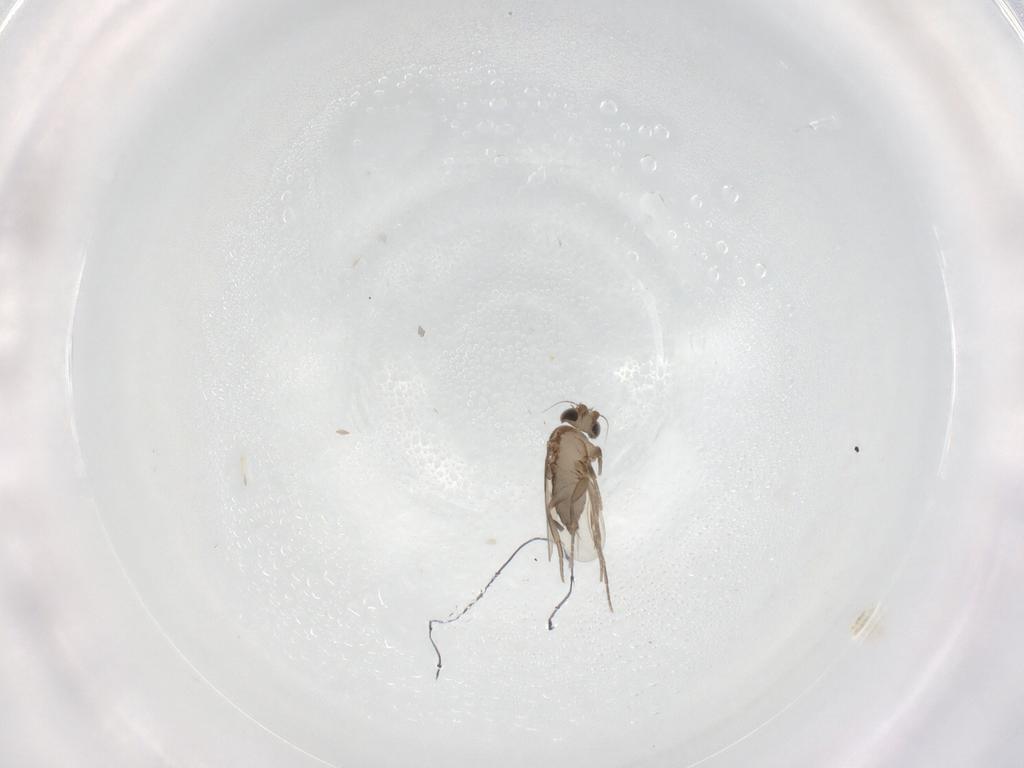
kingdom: Animalia
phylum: Arthropoda
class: Insecta
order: Diptera
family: Phoridae
